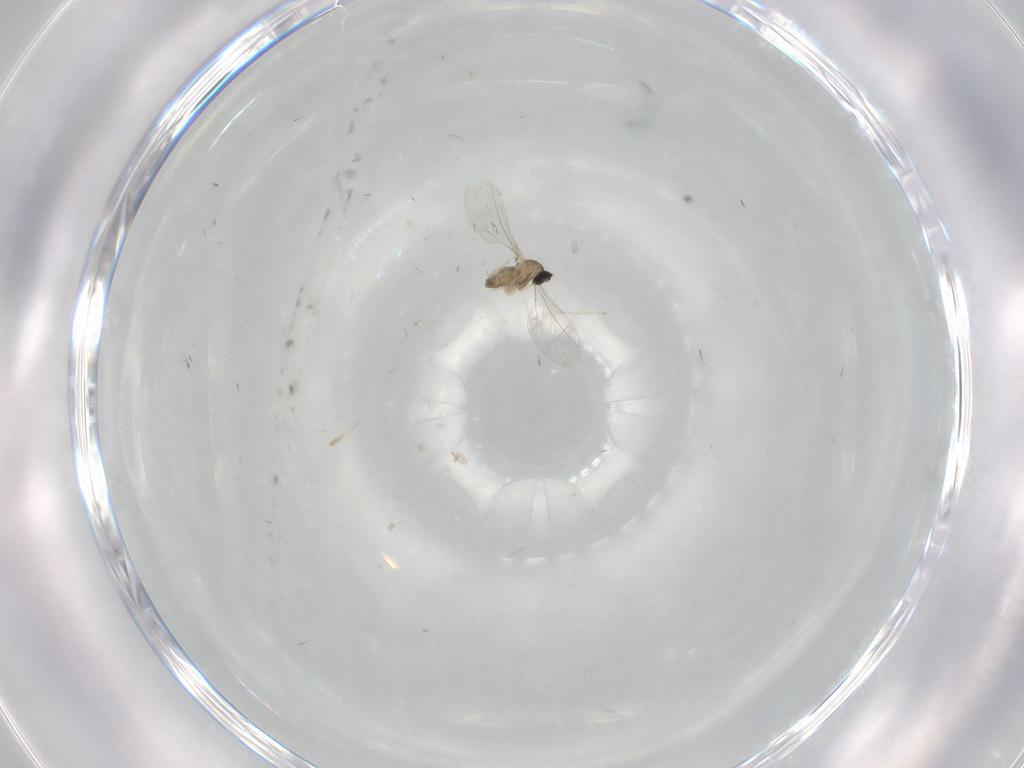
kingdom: Animalia
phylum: Arthropoda
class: Insecta
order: Diptera
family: Cecidomyiidae
